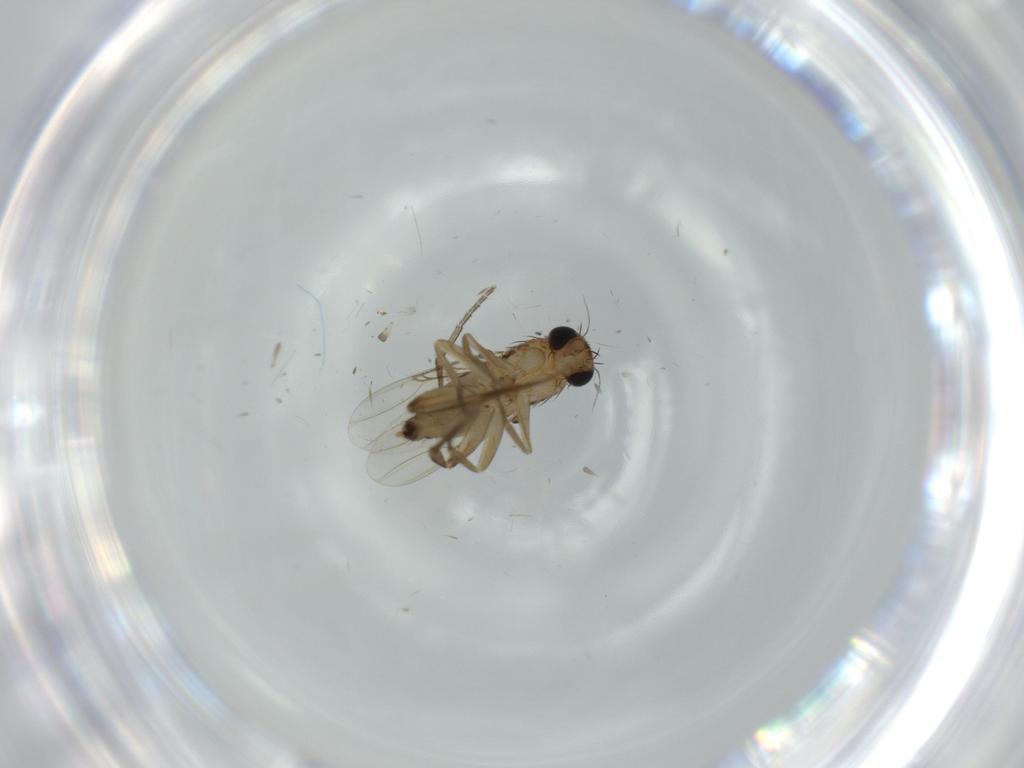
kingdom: Animalia
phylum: Arthropoda
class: Insecta
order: Diptera
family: Phoridae
